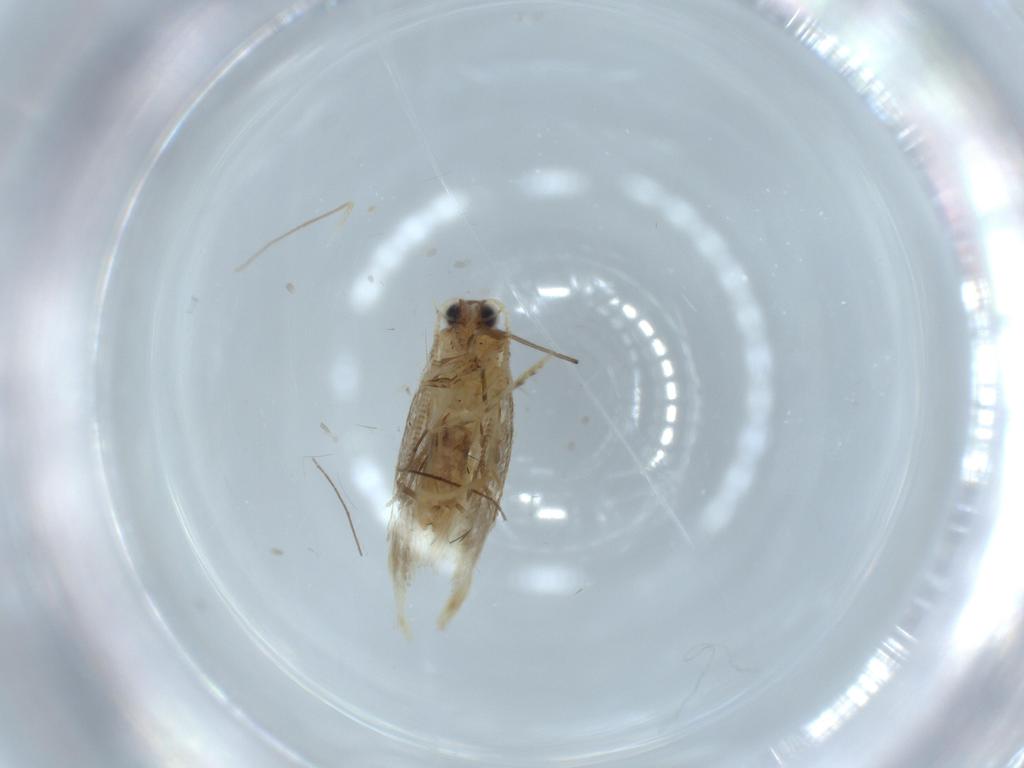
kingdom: Animalia
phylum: Arthropoda
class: Insecta
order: Lepidoptera
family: Tineidae
